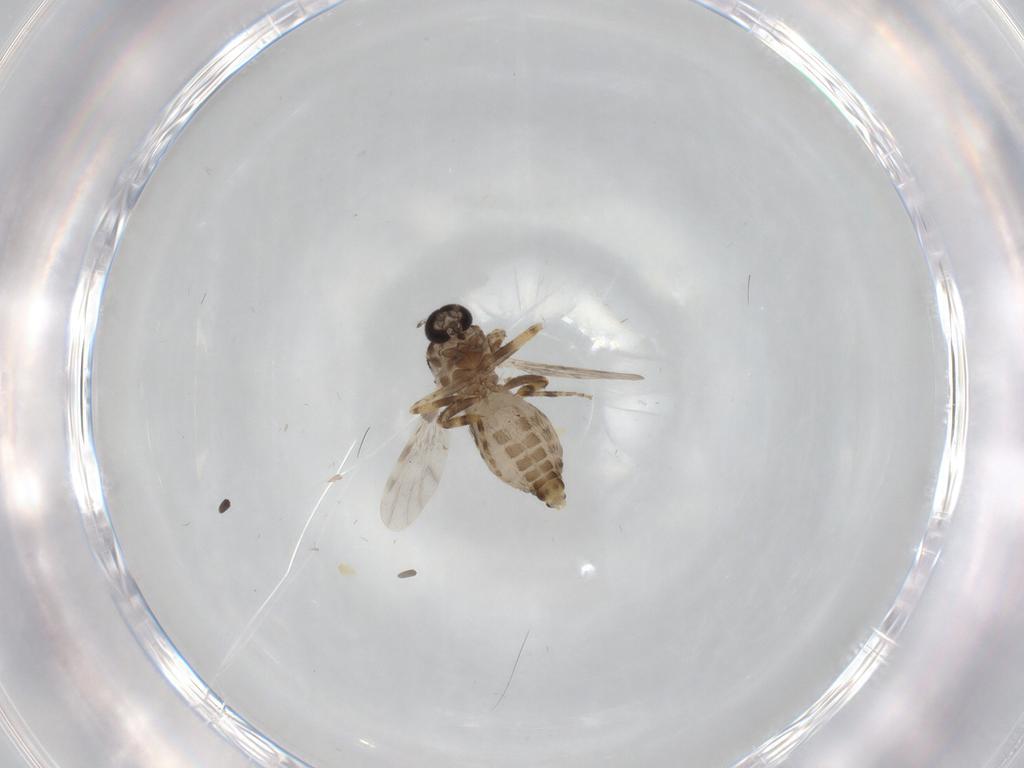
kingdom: Animalia
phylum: Arthropoda
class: Insecta
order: Diptera
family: Ceratopogonidae
